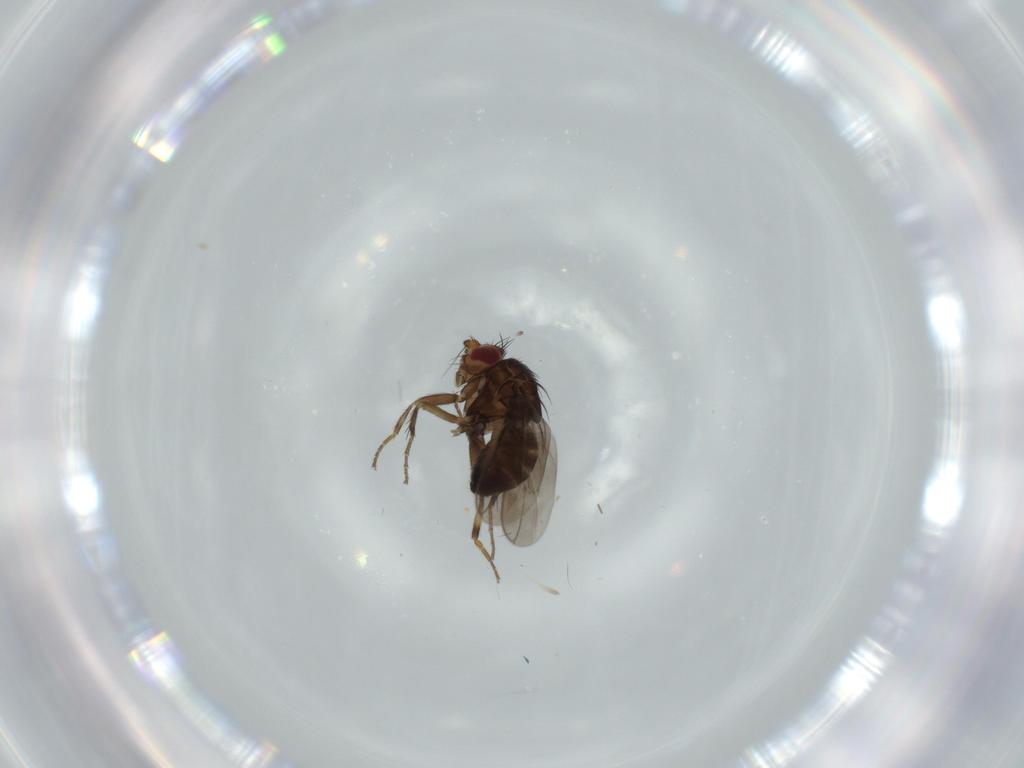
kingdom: Animalia
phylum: Arthropoda
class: Insecta
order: Diptera
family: Sphaeroceridae
